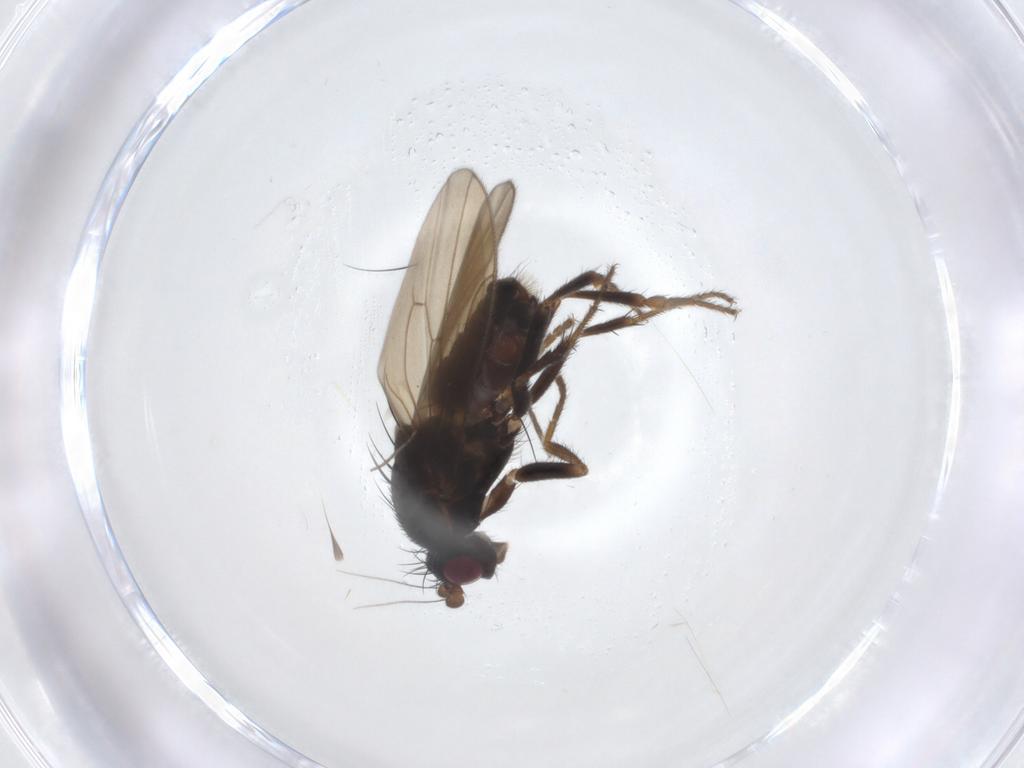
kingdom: Animalia
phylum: Arthropoda
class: Insecta
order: Diptera
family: Sphaeroceridae
